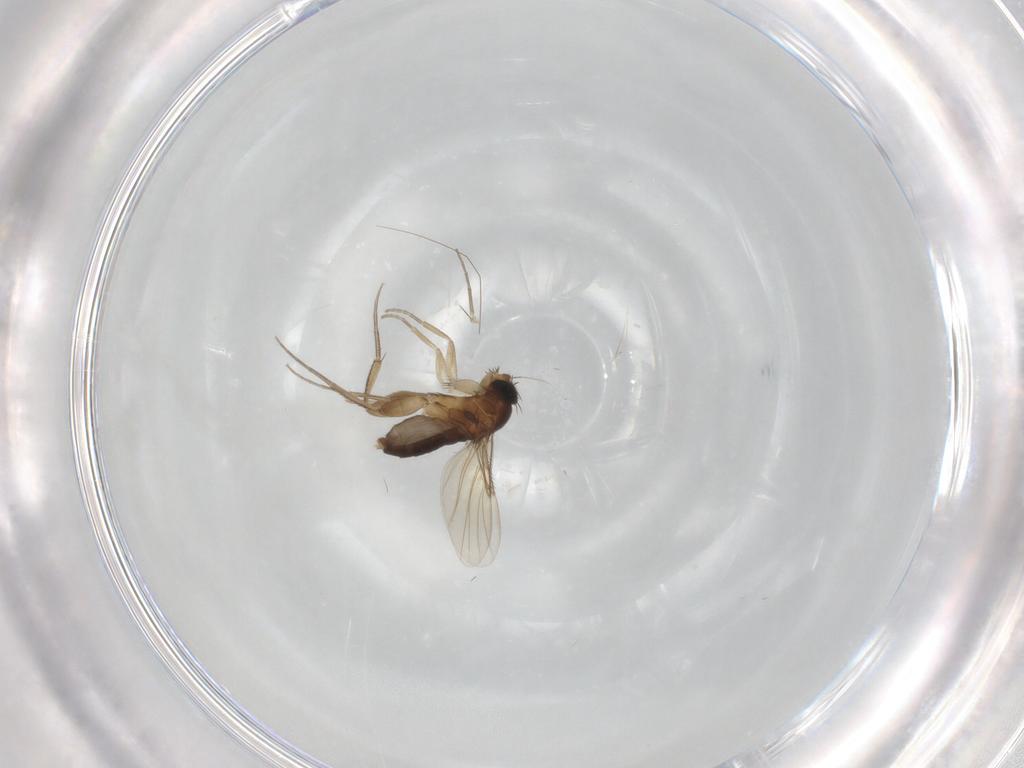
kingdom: Animalia
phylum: Arthropoda
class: Insecta
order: Diptera
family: Phoridae
